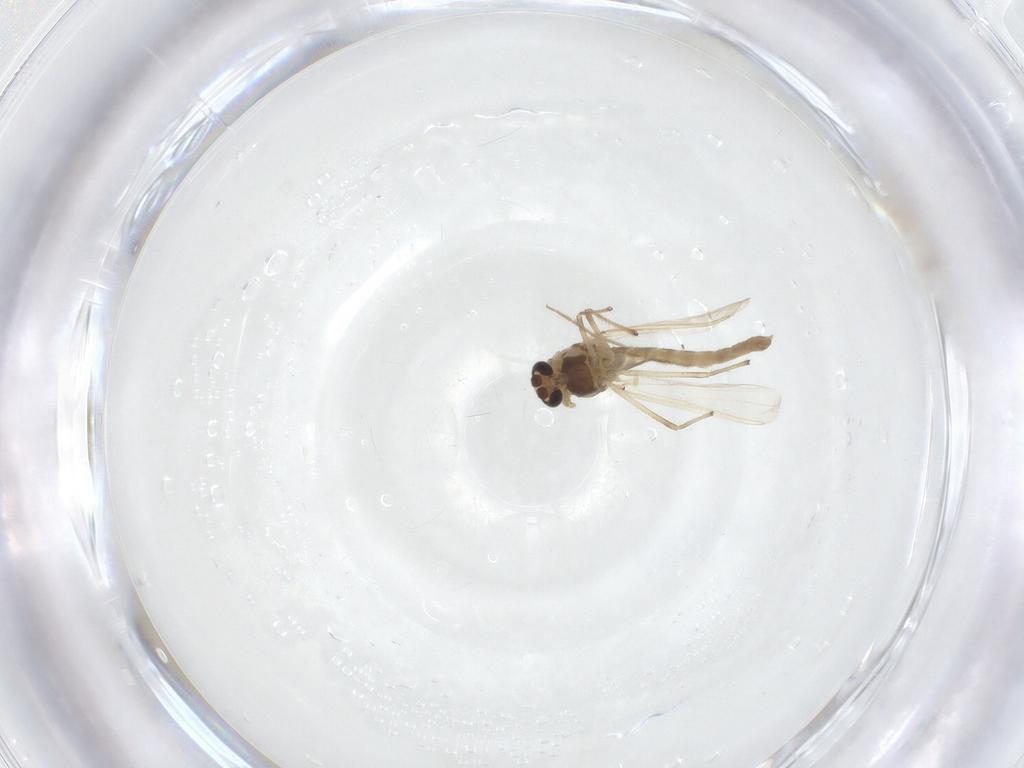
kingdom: Animalia
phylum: Arthropoda
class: Insecta
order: Diptera
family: Chironomidae
